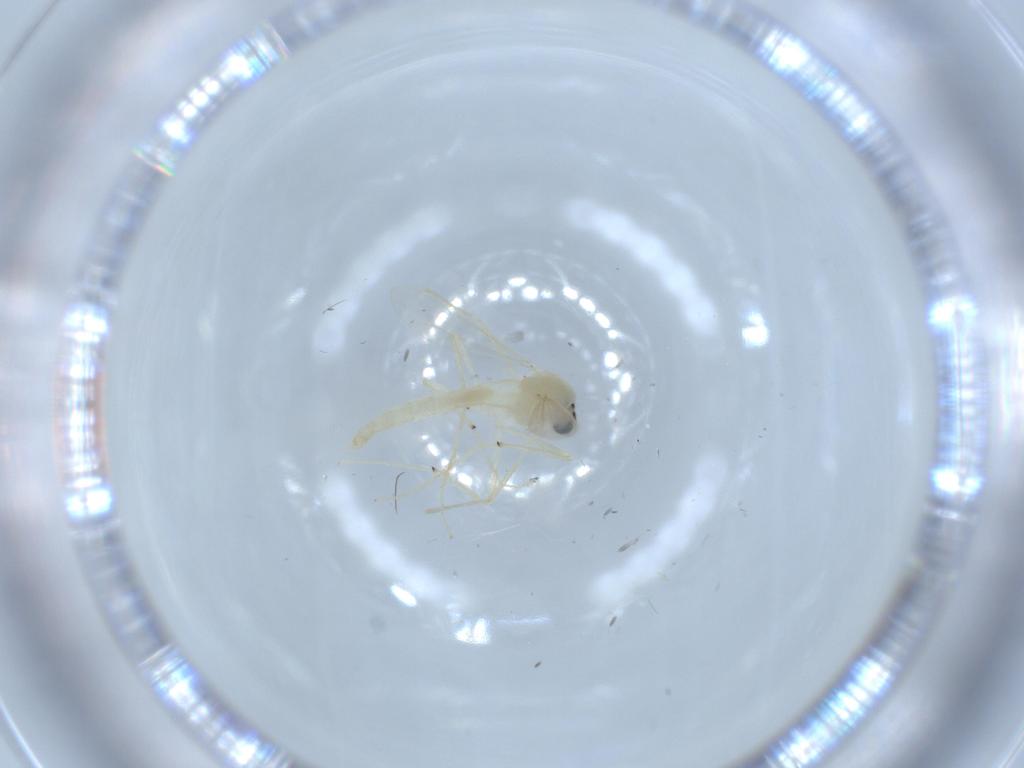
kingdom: Animalia
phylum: Arthropoda
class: Insecta
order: Diptera
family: Chironomidae
